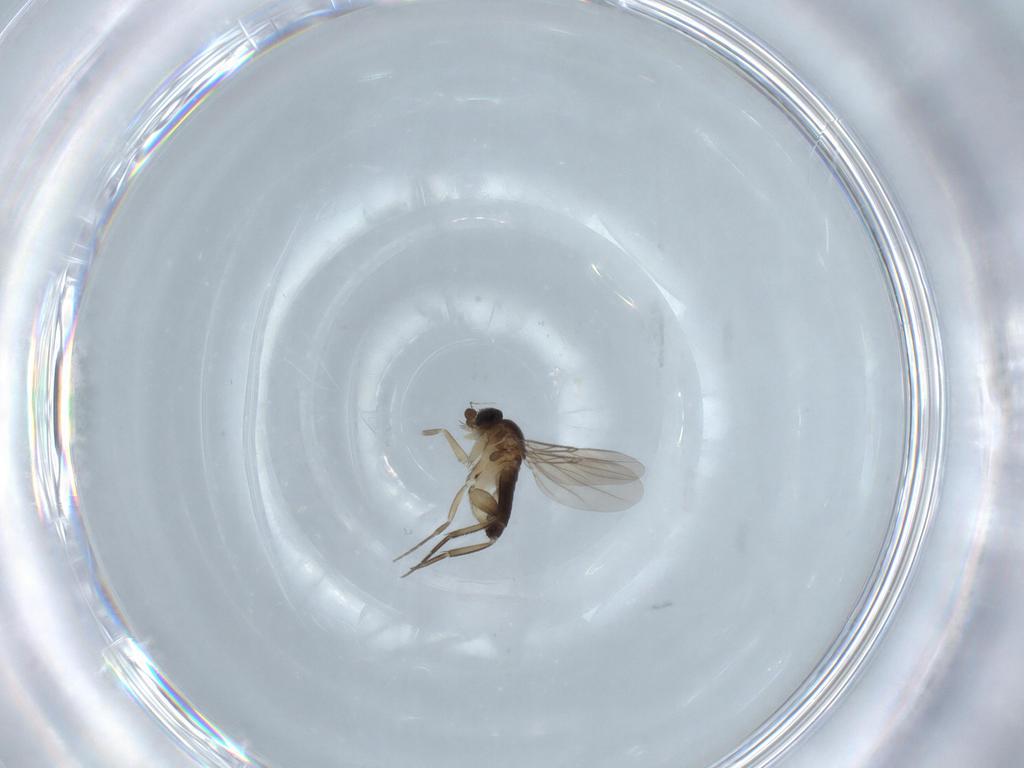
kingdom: Animalia
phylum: Arthropoda
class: Insecta
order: Diptera
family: Phoridae
